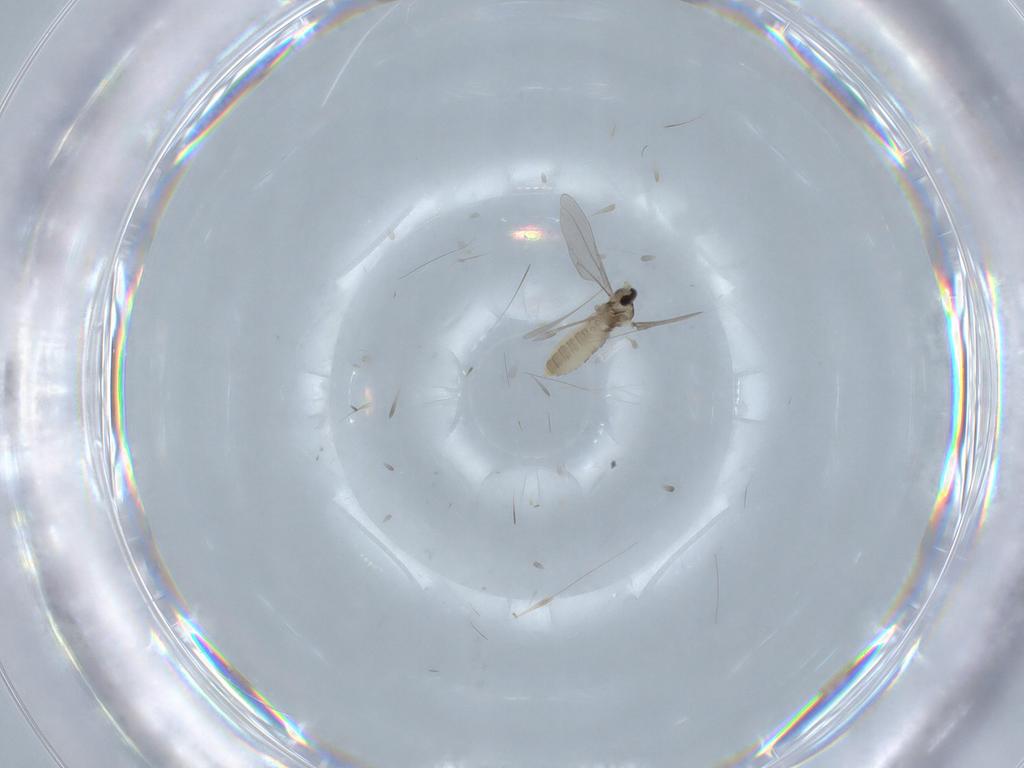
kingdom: Animalia
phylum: Arthropoda
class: Insecta
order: Diptera
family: Cecidomyiidae
